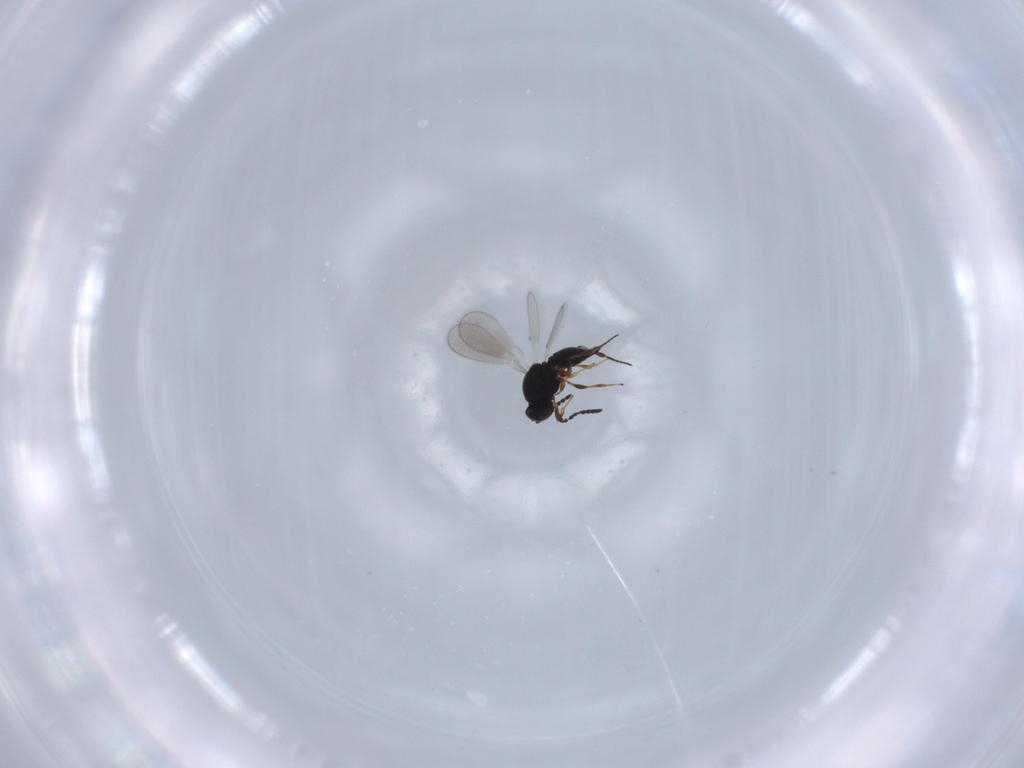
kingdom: Animalia
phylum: Arthropoda
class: Insecta
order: Hymenoptera
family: Platygastridae
